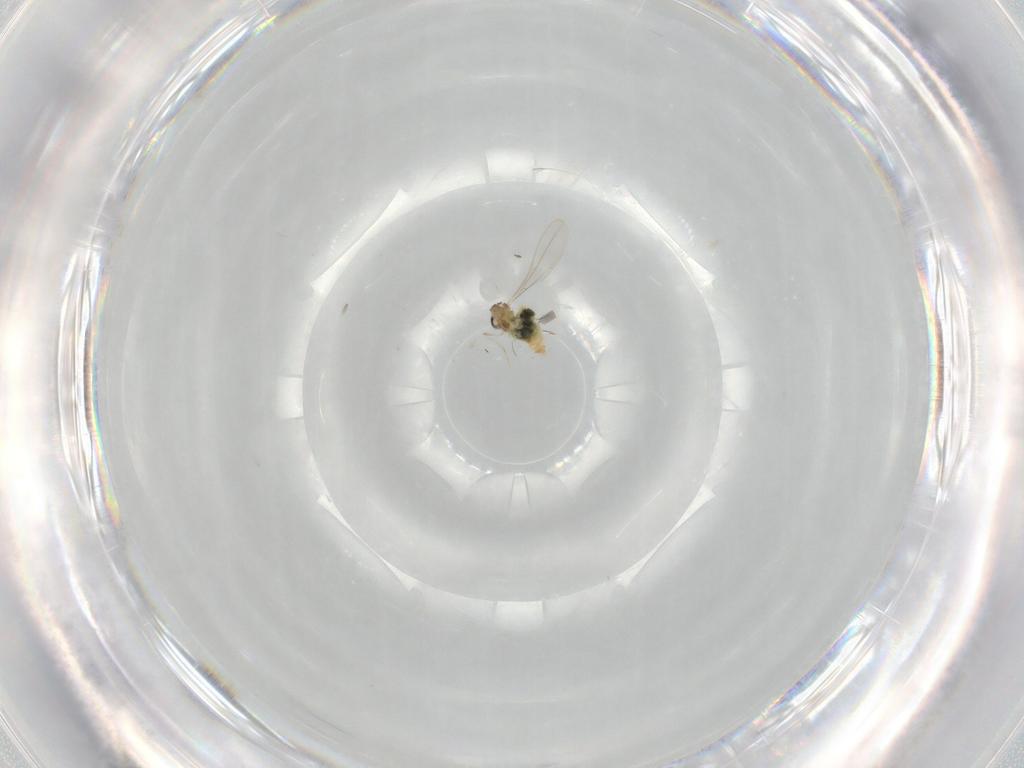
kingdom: Animalia
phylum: Arthropoda
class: Insecta
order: Diptera
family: Cecidomyiidae
